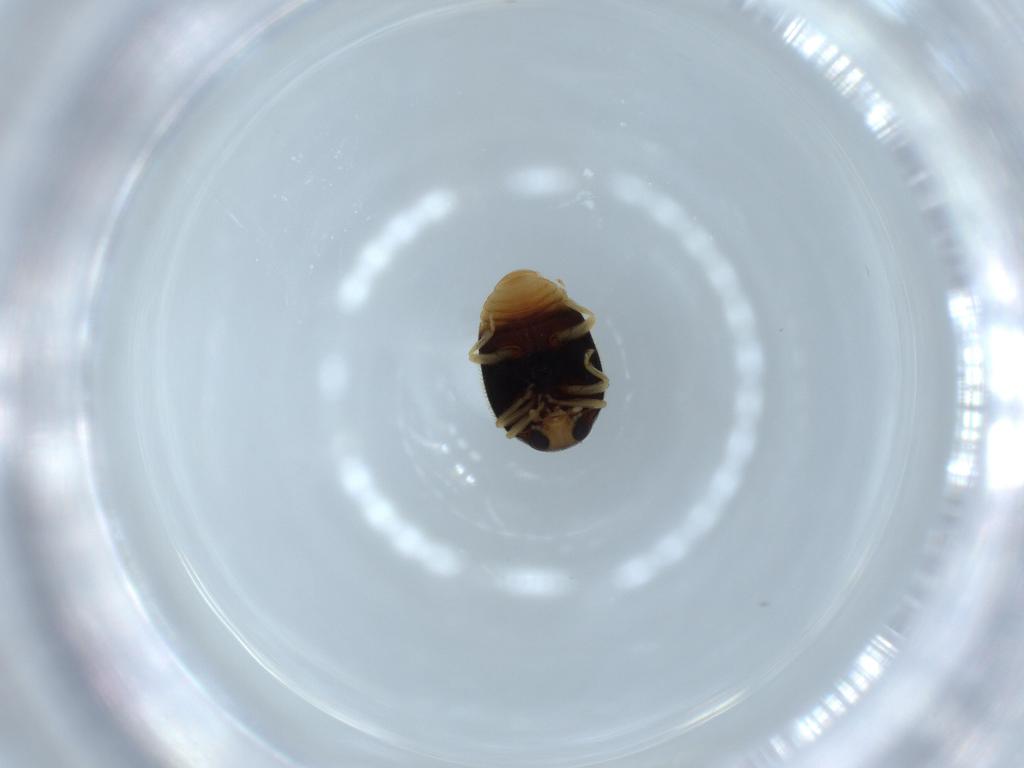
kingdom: Animalia
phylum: Arthropoda
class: Insecta
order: Coleoptera
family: Coccinellidae
